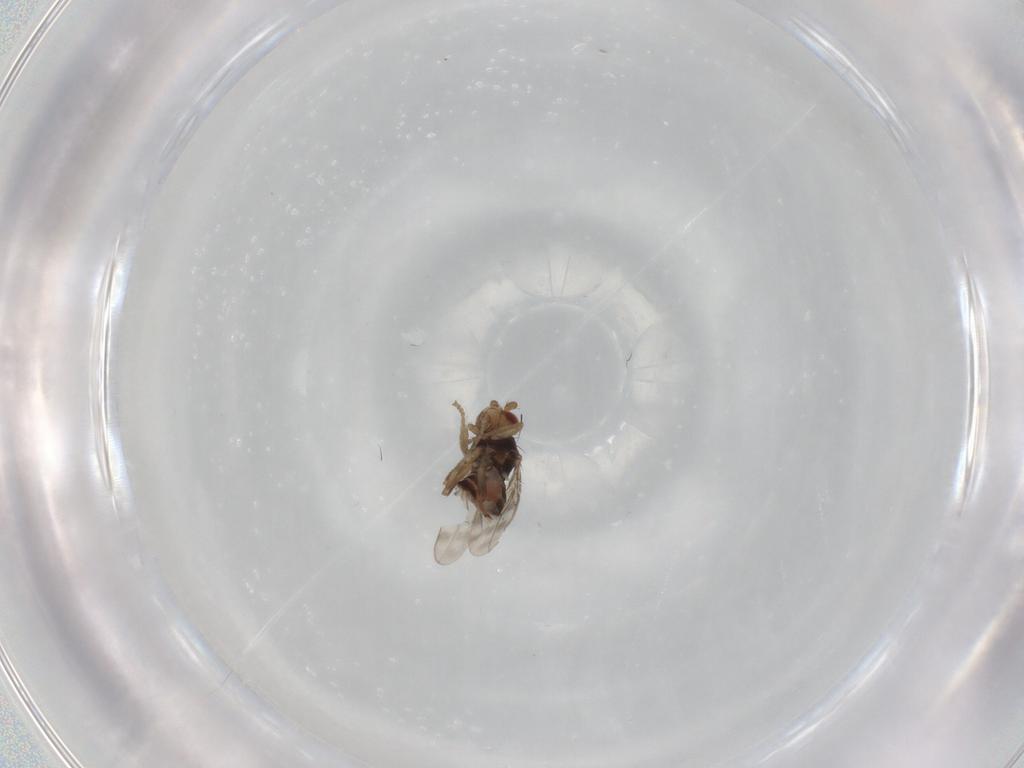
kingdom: Animalia
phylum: Arthropoda
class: Insecta
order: Diptera
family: Sphaeroceridae
